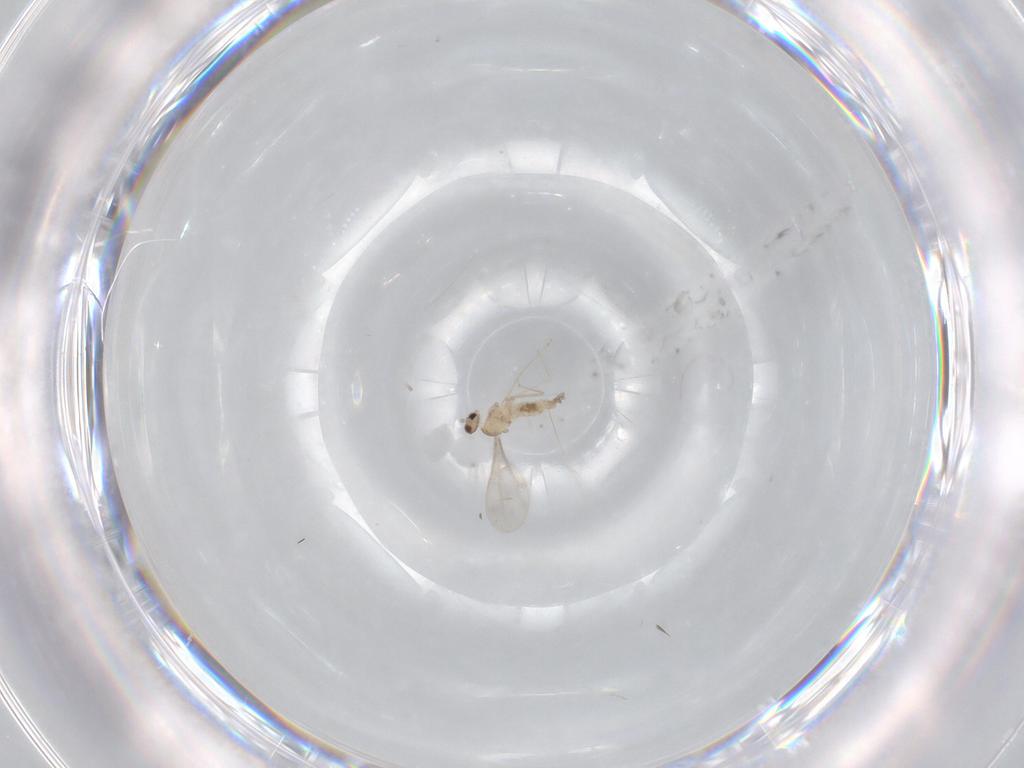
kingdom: Animalia
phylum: Arthropoda
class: Insecta
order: Diptera
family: Cecidomyiidae
